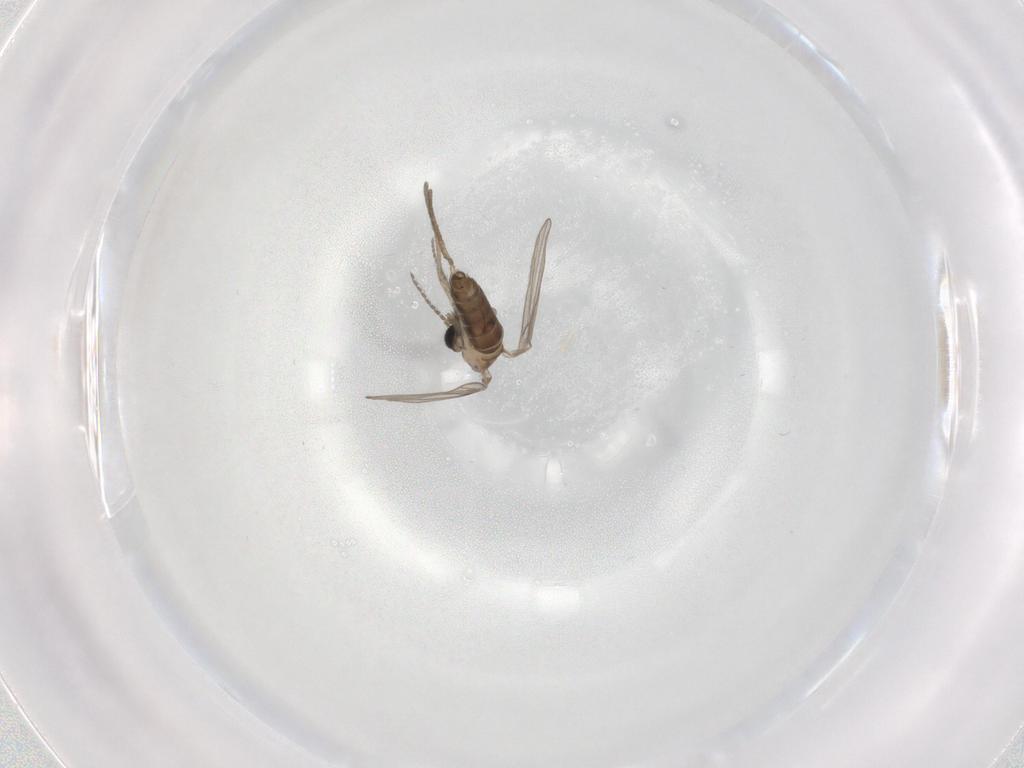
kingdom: Animalia
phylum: Arthropoda
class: Insecta
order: Diptera
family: Psychodidae
